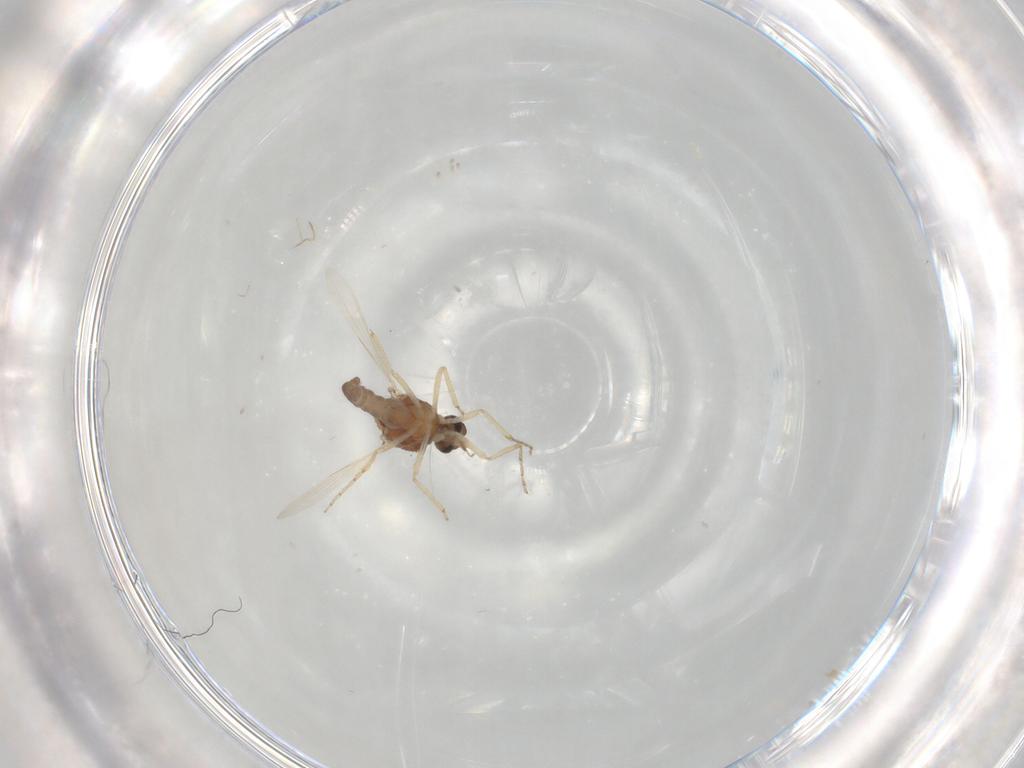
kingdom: Animalia
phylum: Arthropoda
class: Insecta
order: Diptera
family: Ceratopogonidae
